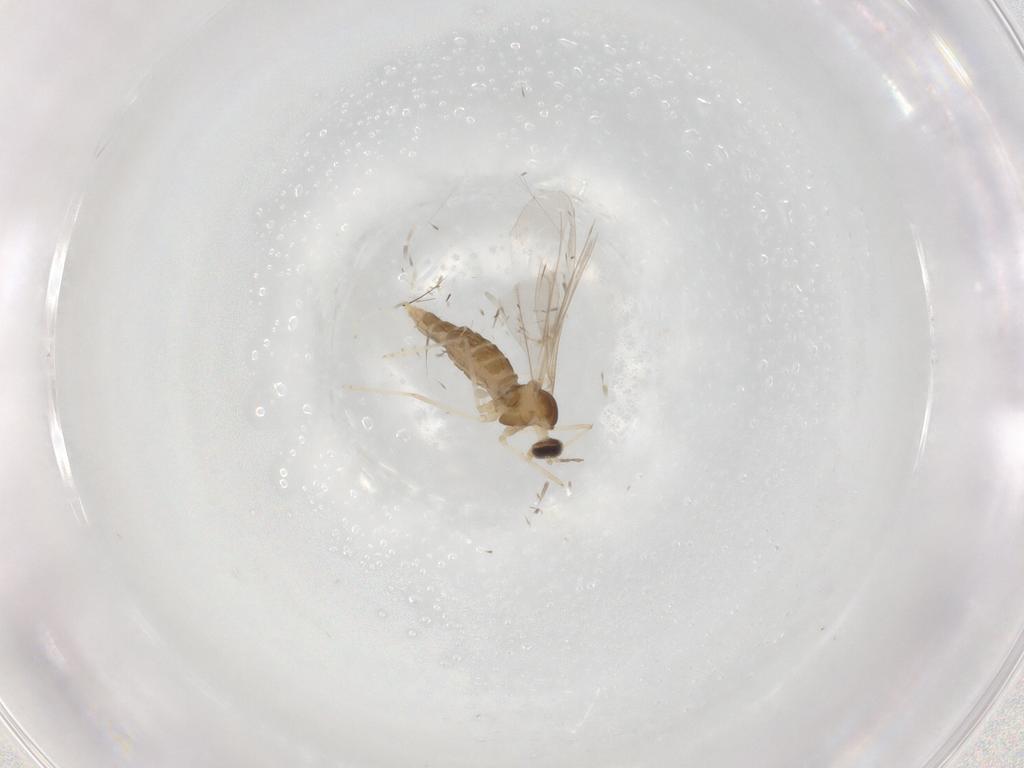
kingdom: Animalia
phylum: Arthropoda
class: Insecta
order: Diptera
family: Cecidomyiidae
